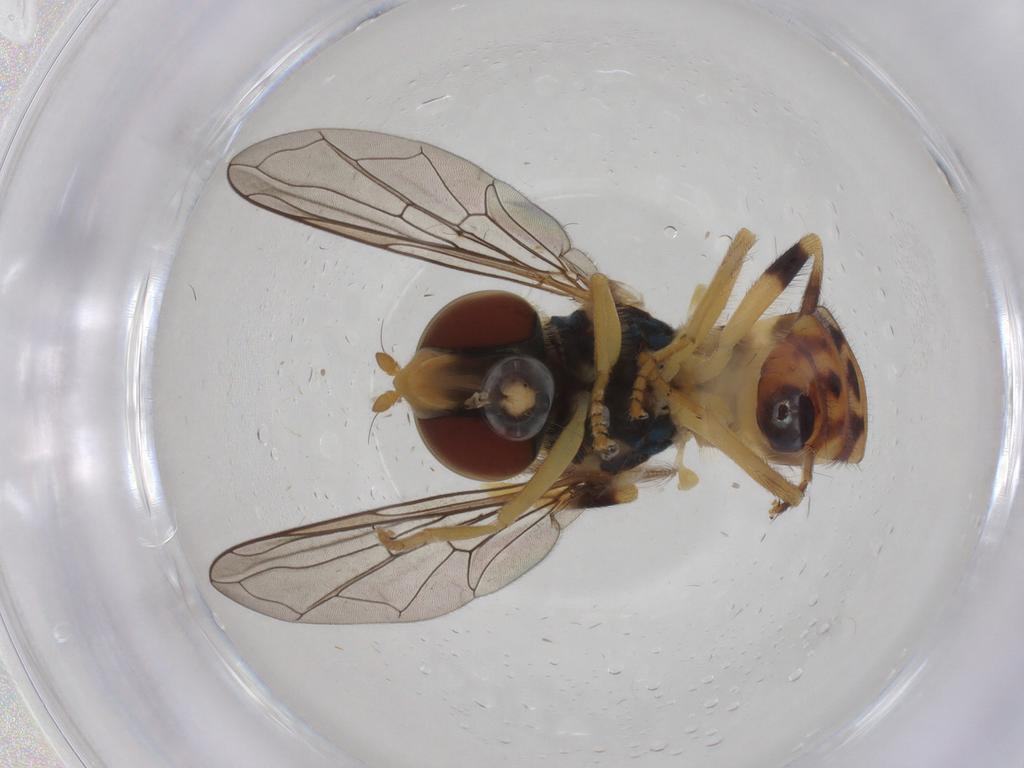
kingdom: Animalia
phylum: Arthropoda
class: Insecta
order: Diptera
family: Syrphidae
